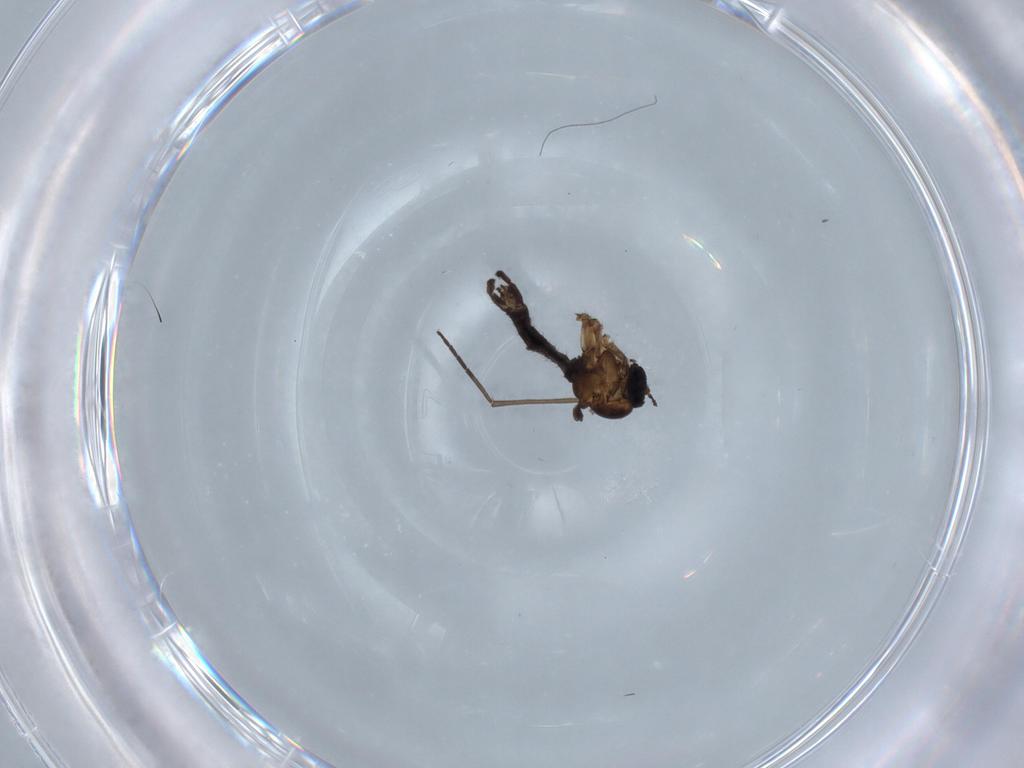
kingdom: Animalia
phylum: Arthropoda
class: Insecta
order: Diptera
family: Sciaridae
